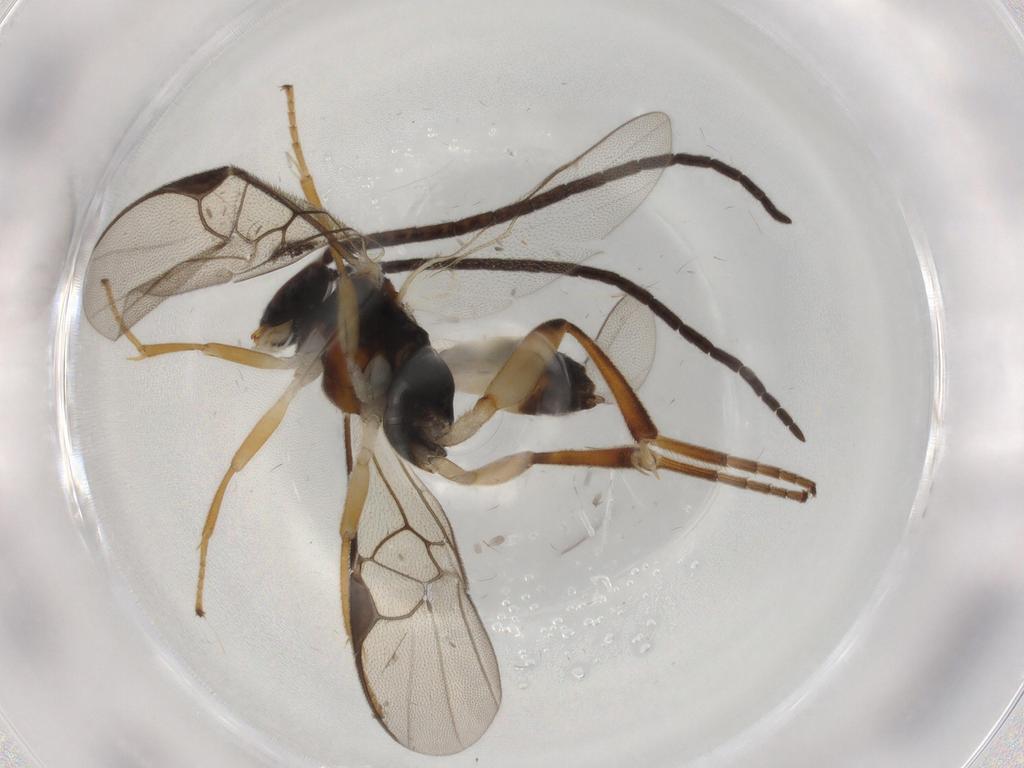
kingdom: Animalia
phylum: Arthropoda
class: Insecta
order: Hymenoptera
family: Braconidae
